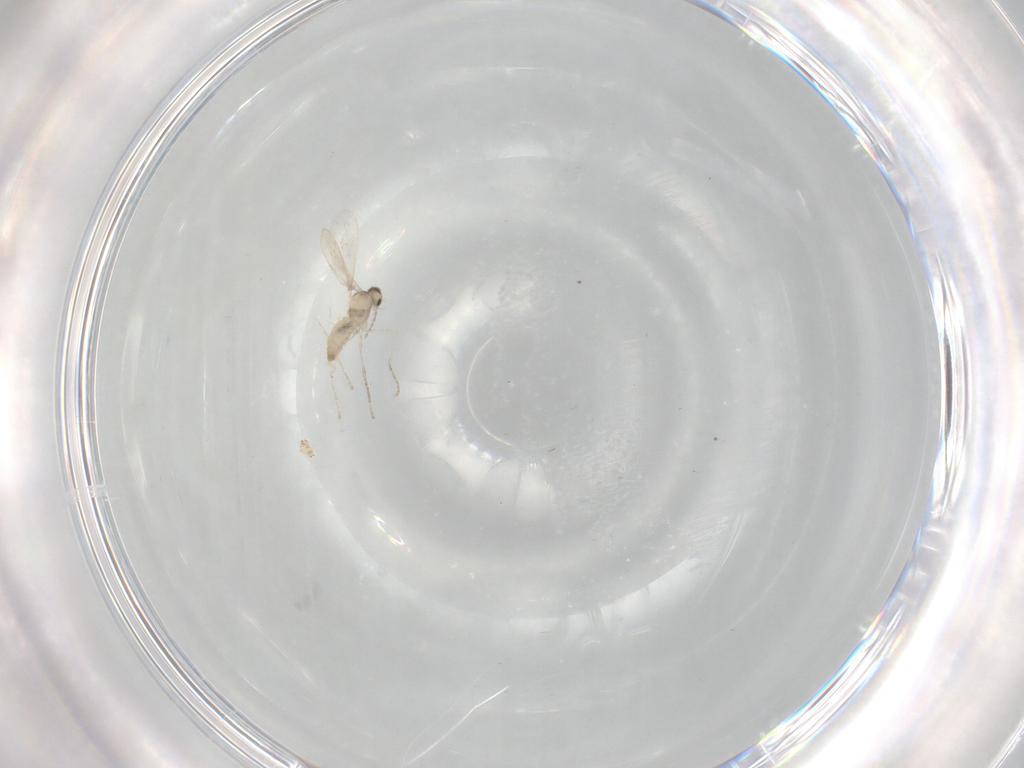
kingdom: Animalia
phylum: Arthropoda
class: Insecta
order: Diptera
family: Cecidomyiidae
